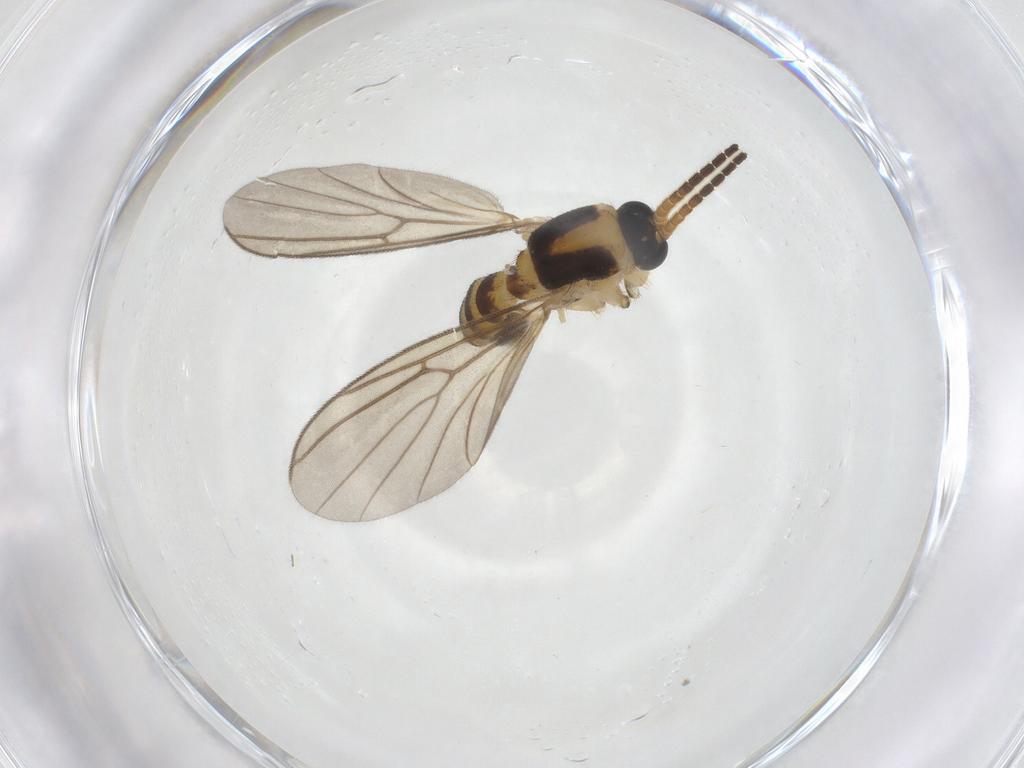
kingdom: Animalia
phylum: Arthropoda
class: Insecta
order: Diptera
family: Mycetophilidae
